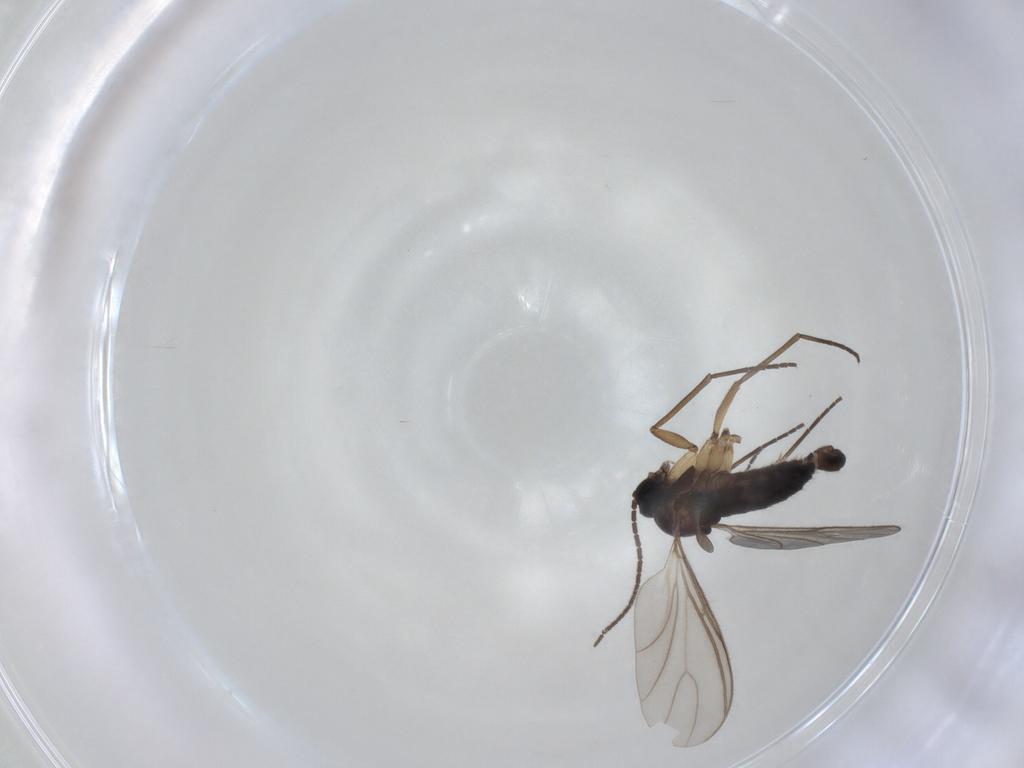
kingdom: Animalia
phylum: Arthropoda
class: Insecta
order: Diptera
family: Sciaridae
